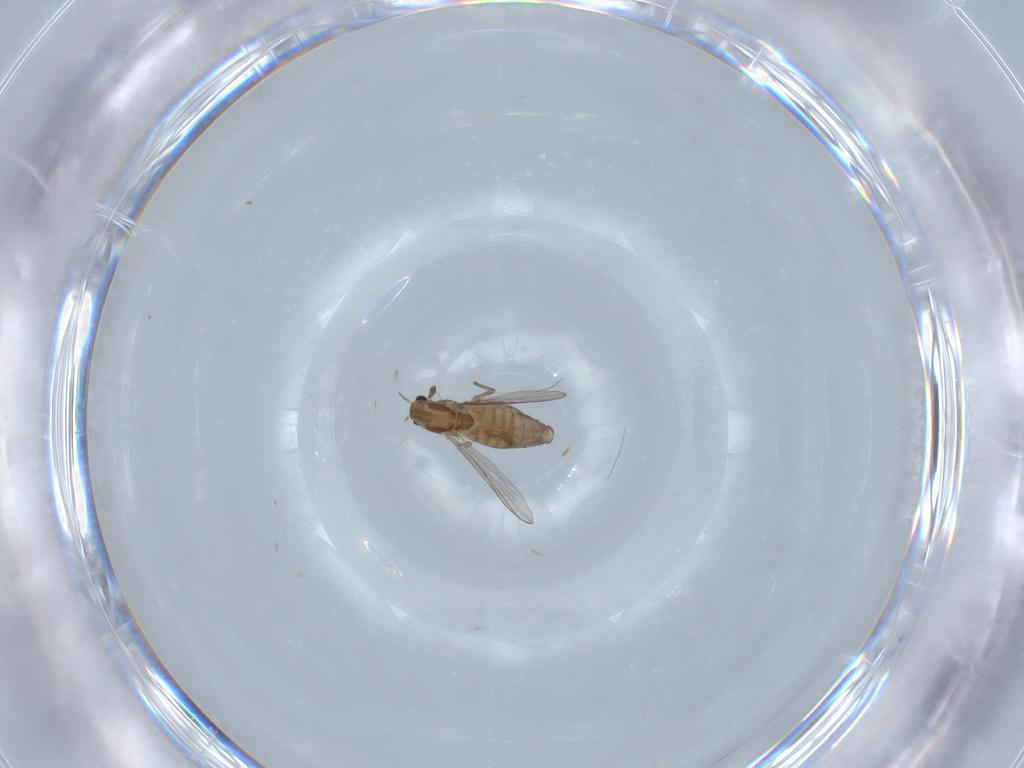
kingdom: Animalia
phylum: Arthropoda
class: Insecta
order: Diptera
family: Chironomidae
